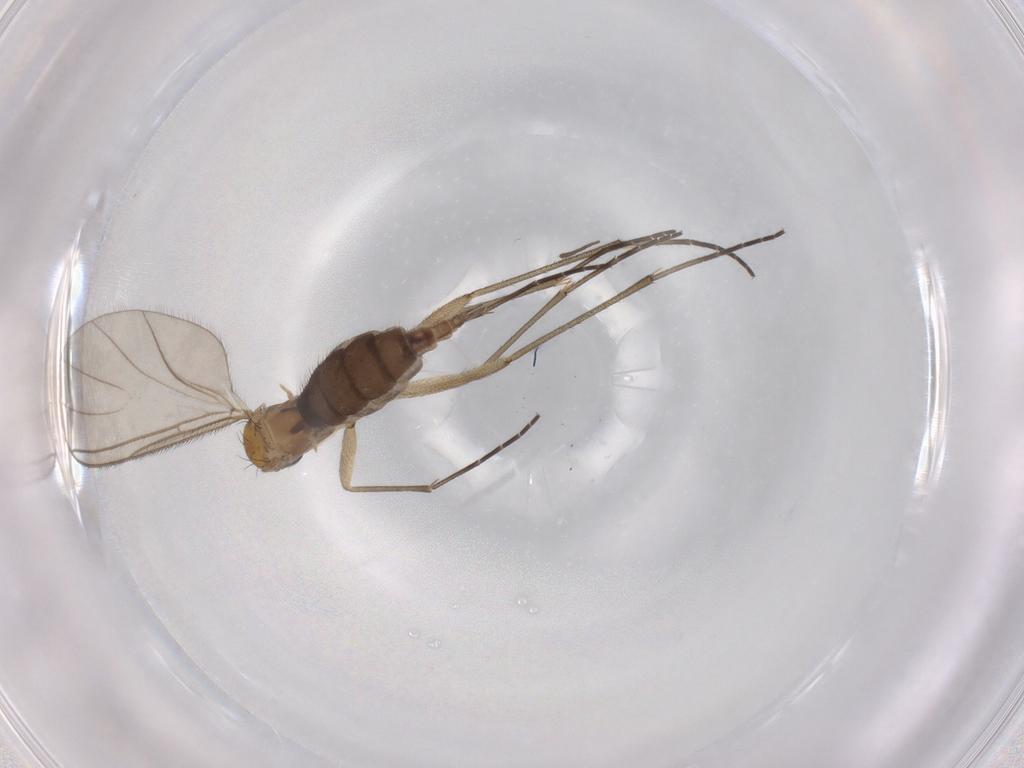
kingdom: Animalia
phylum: Arthropoda
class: Insecta
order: Diptera
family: Sciaridae
